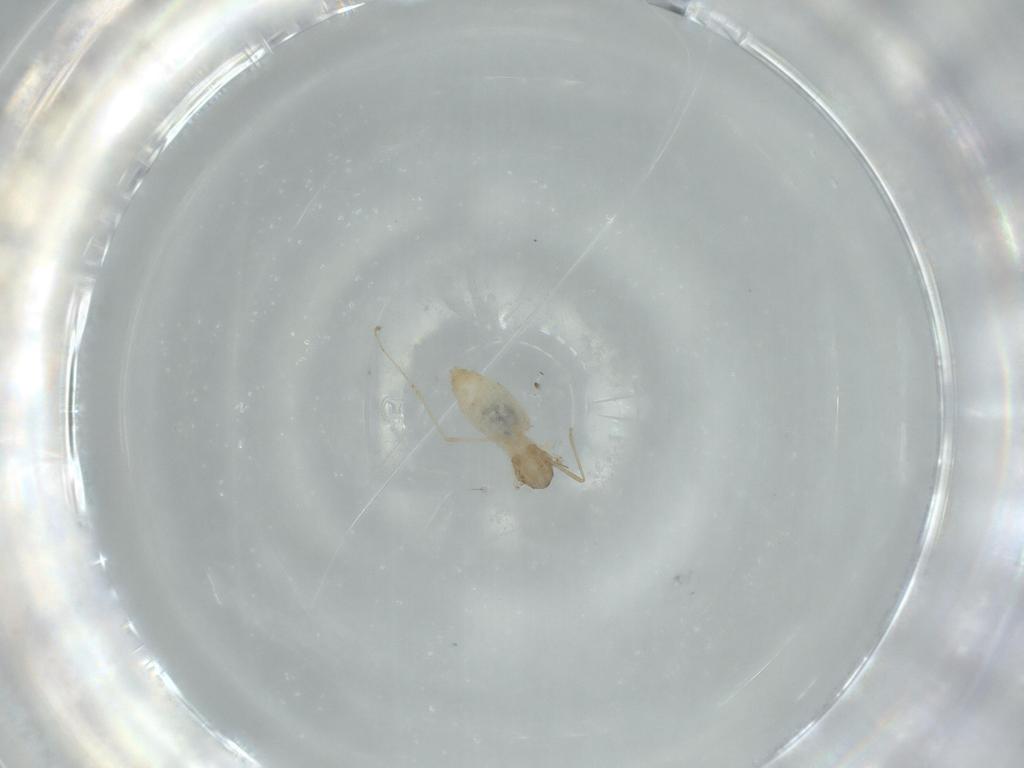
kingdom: Animalia
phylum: Arthropoda
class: Insecta
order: Diptera
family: Cecidomyiidae
